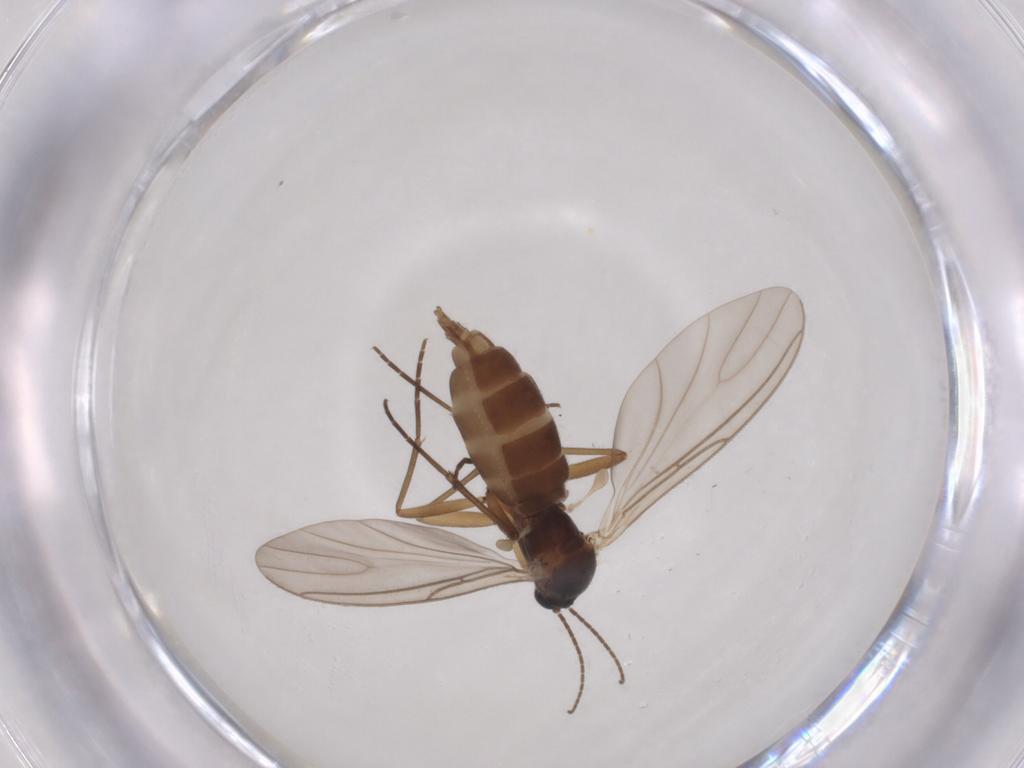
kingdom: Animalia
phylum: Arthropoda
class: Insecta
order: Diptera
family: Sciaridae
